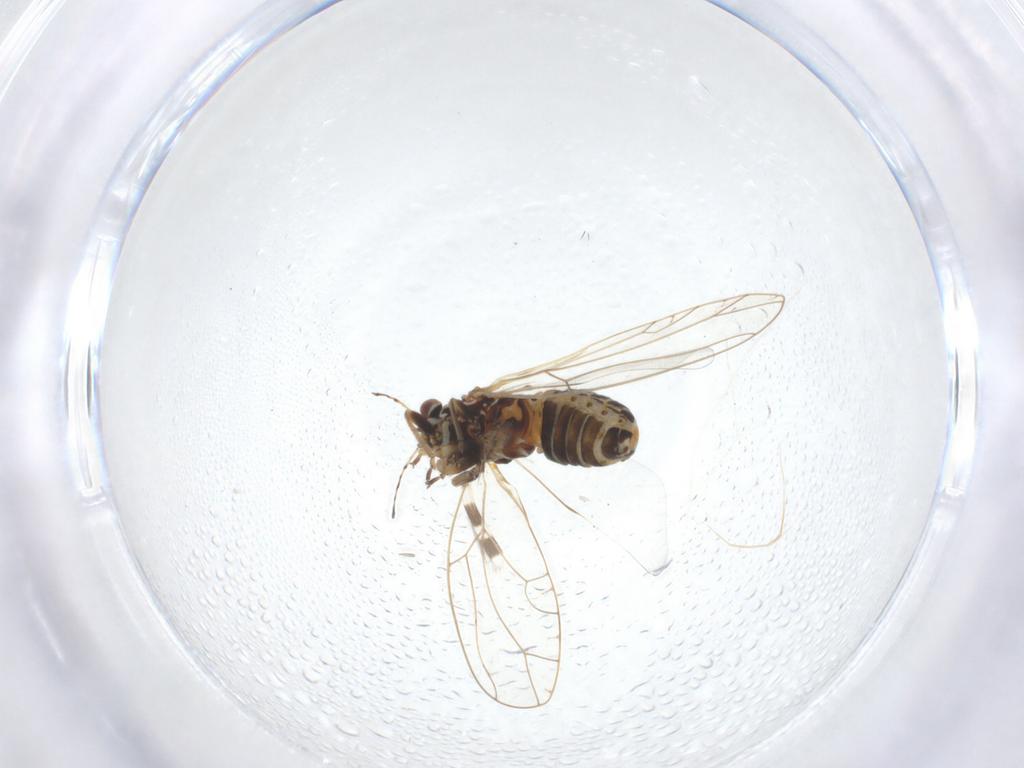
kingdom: Animalia
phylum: Arthropoda
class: Insecta
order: Hemiptera
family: Triozidae
